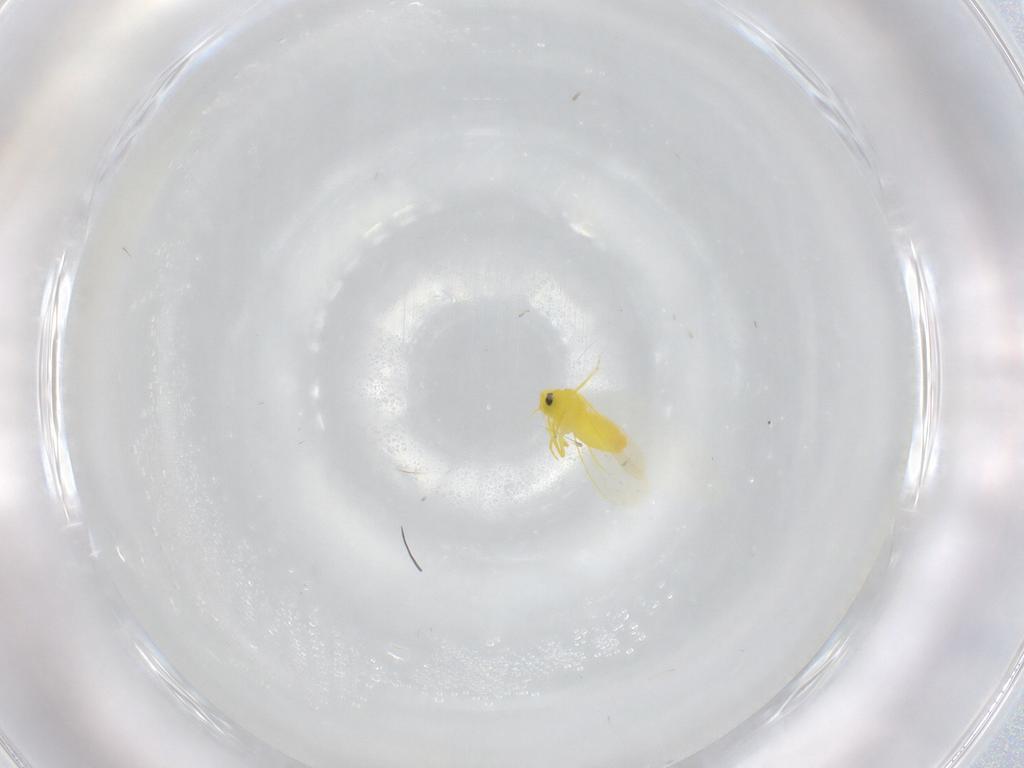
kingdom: Animalia
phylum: Arthropoda
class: Insecta
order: Hemiptera
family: Aleyrodidae
